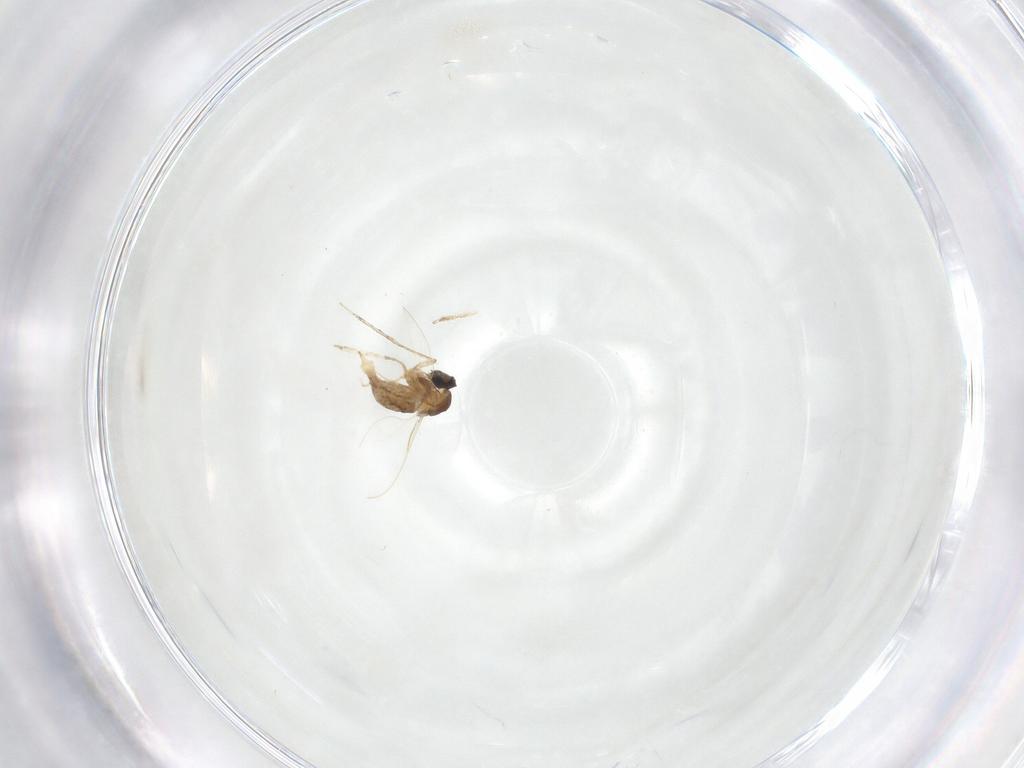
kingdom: Animalia
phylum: Arthropoda
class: Insecta
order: Diptera
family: Cecidomyiidae
